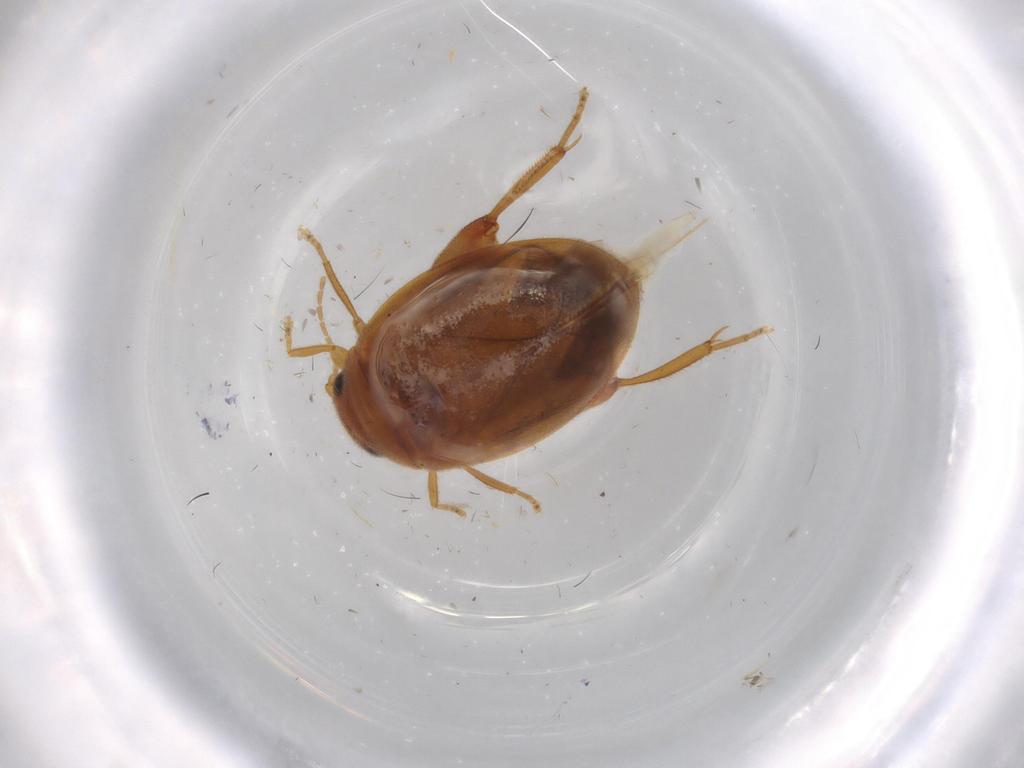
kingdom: Animalia
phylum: Arthropoda
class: Insecta
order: Coleoptera
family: Scirtidae
